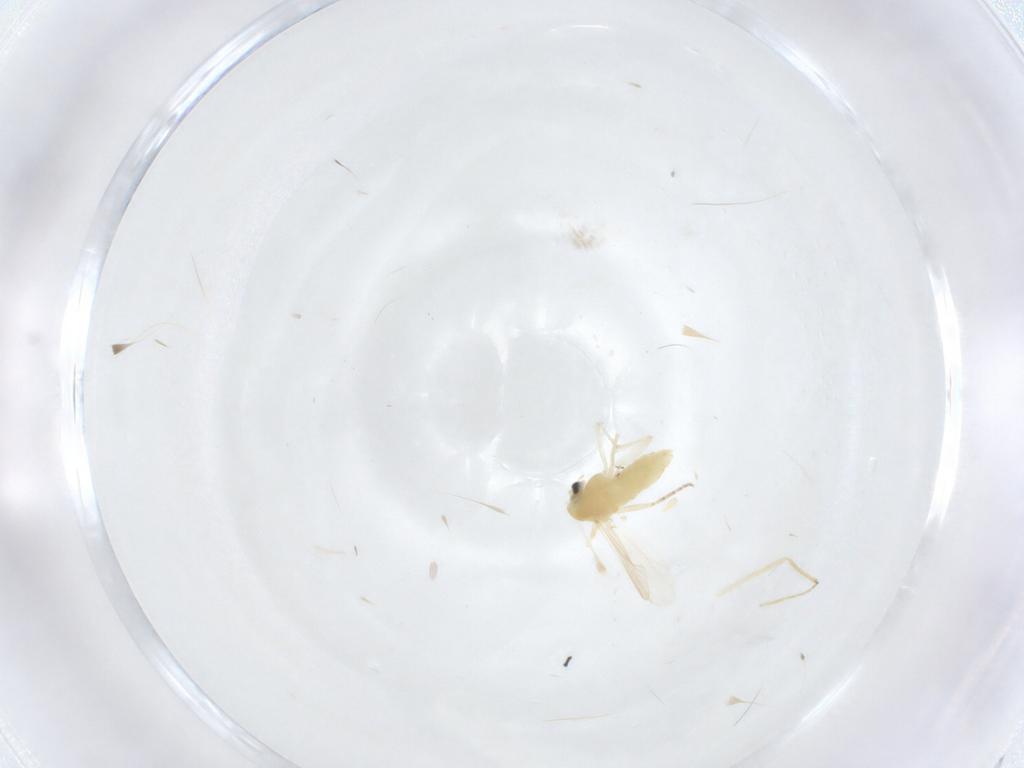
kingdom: Animalia
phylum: Arthropoda
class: Insecta
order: Diptera
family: Chironomidae
